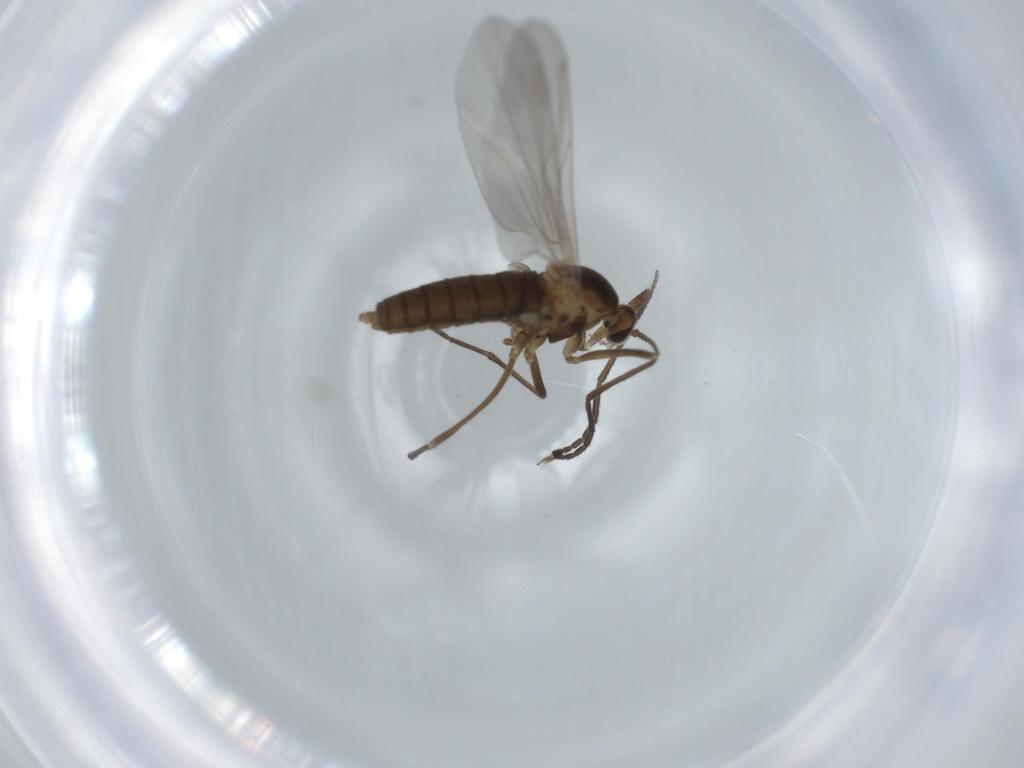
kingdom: Animalia
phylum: Arthropoda
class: Insecta
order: Diptera
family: Cecidomyiidae
